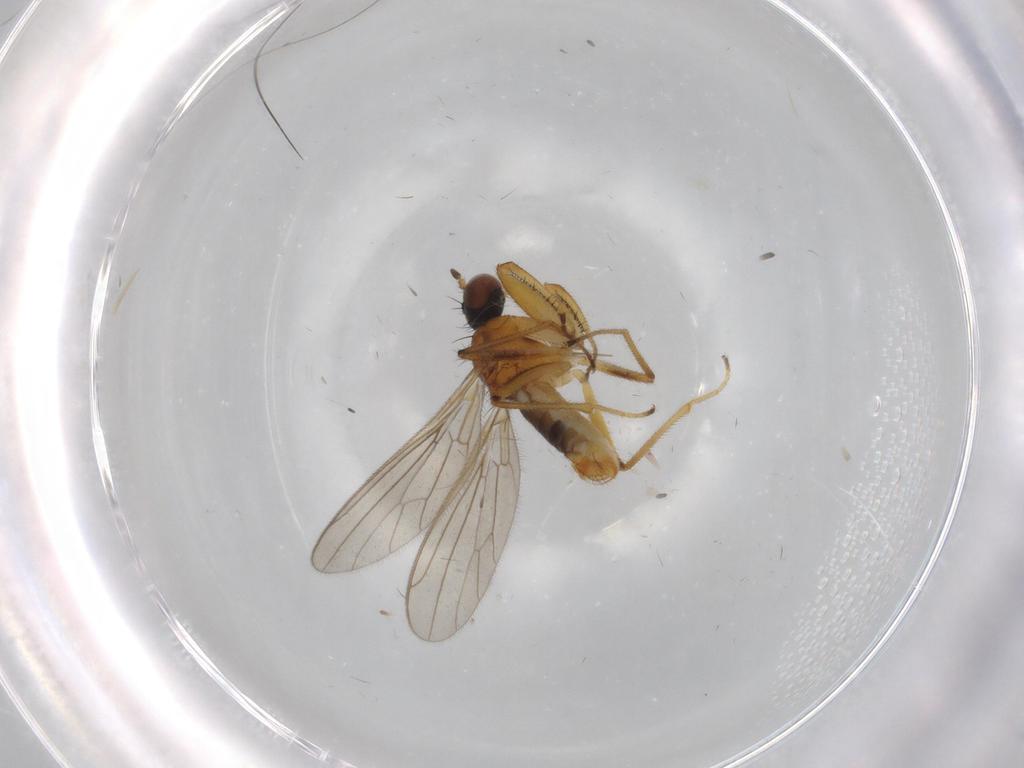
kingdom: Animalia
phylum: Arthropoda
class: Insecta
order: Diptera
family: Empididae
